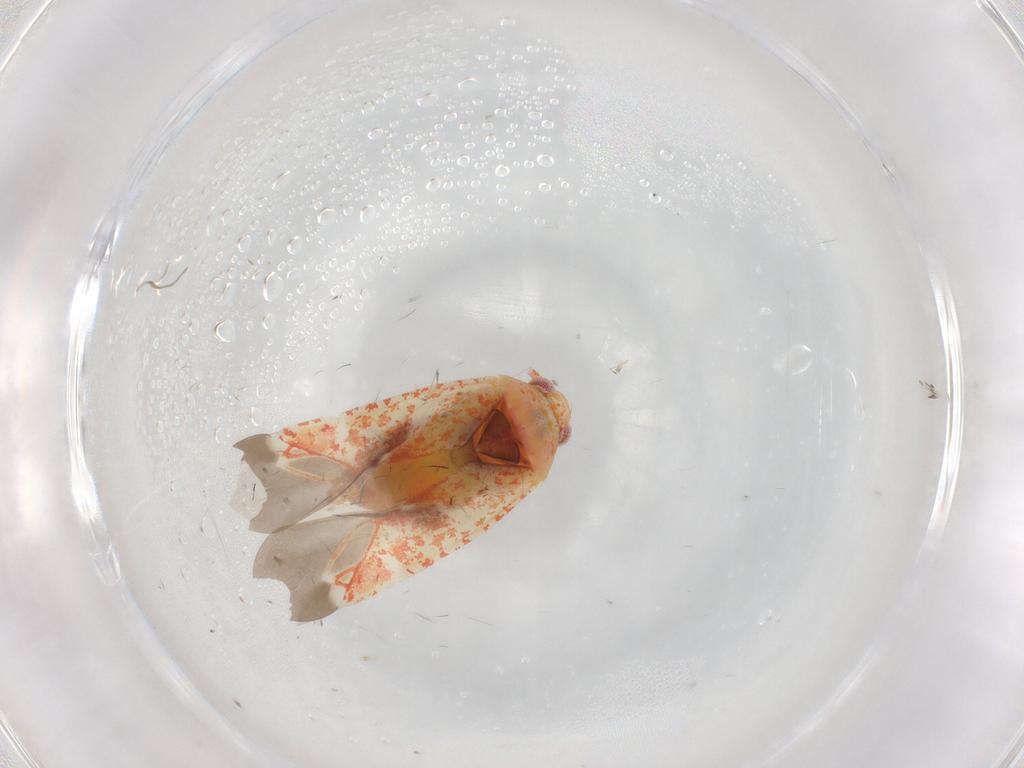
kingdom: Animalia
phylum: Arthropoda
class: Insecta
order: Hemiptera
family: Miridae
